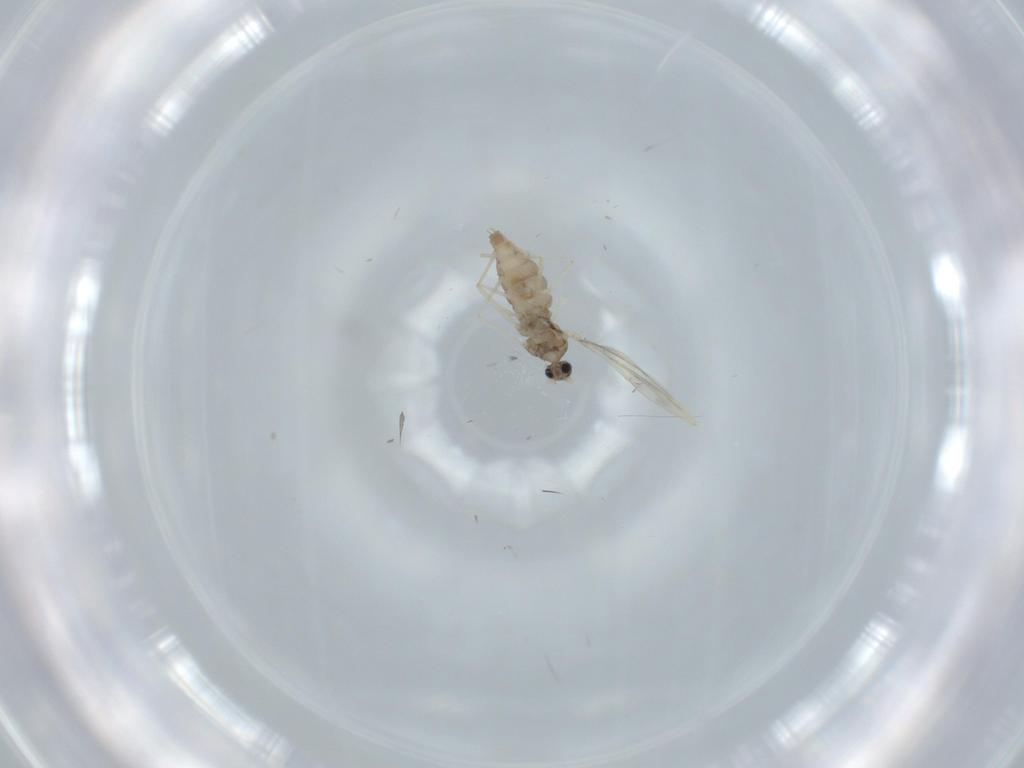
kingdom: Animalia
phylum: Arthropoda
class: Insecta
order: Diptera
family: Cecidomyiidae
